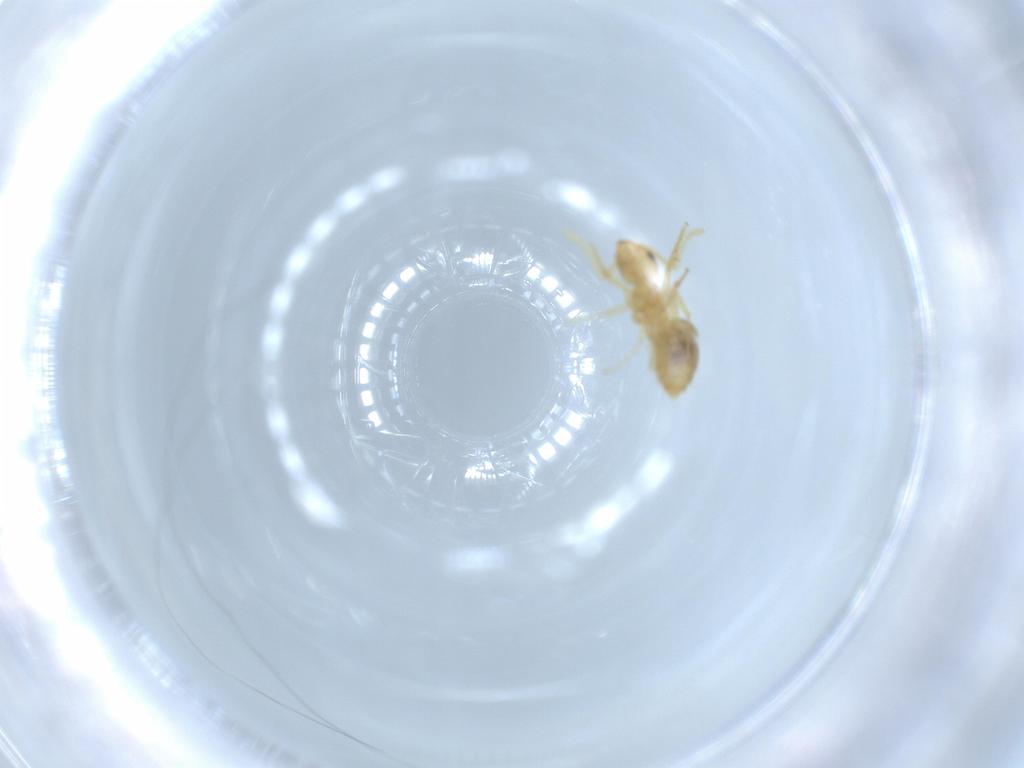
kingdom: Animalia
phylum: Arthropoda
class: Insecta
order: Hymenoptera
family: Formicidae
